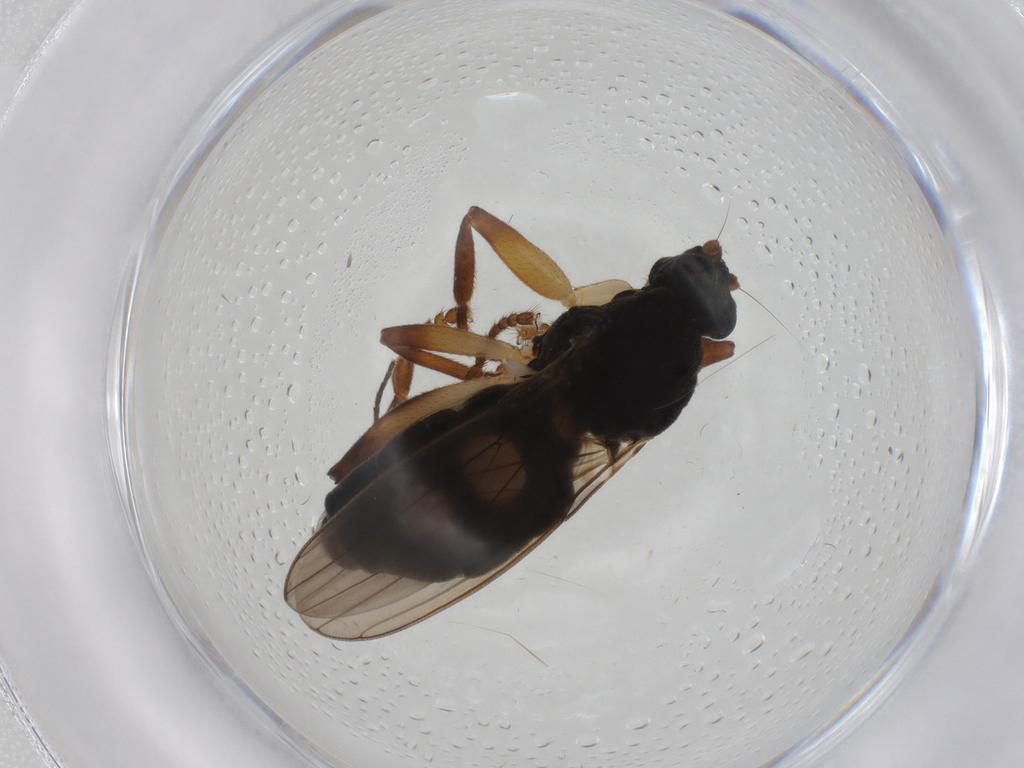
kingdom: Animalia
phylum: Arthropoda
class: Insecta
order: Diptera
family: Sphaeroceridae
